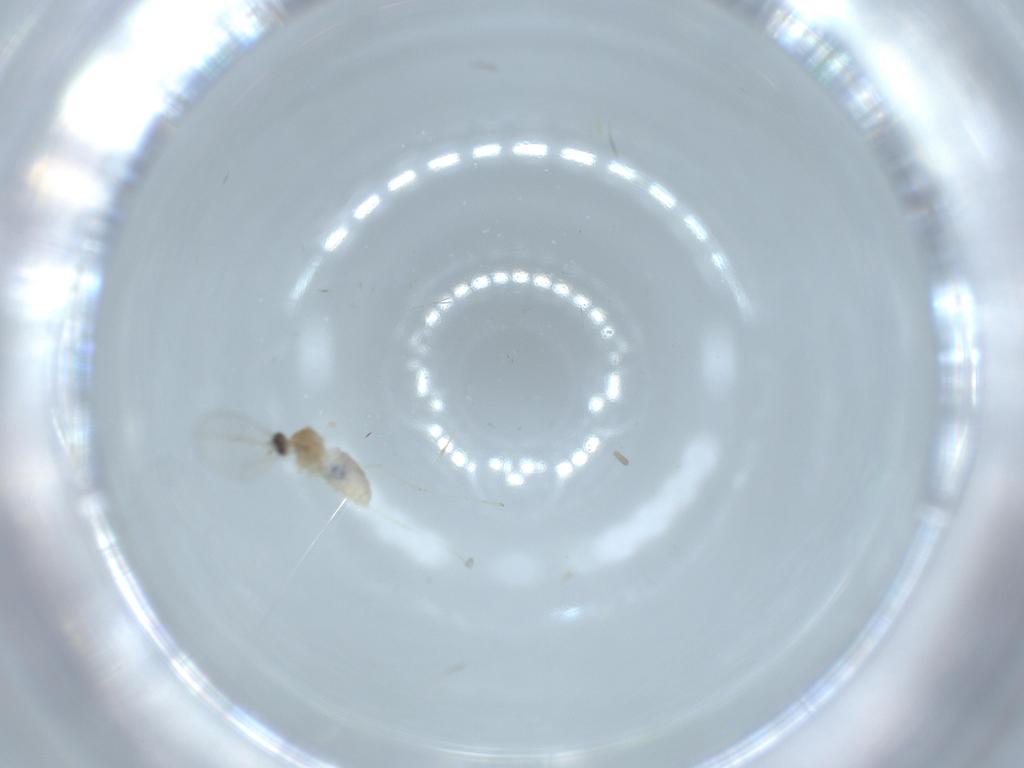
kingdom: Animalia
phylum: Arthropoda
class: Insecta
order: Diptera
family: Cecidomyiidae
